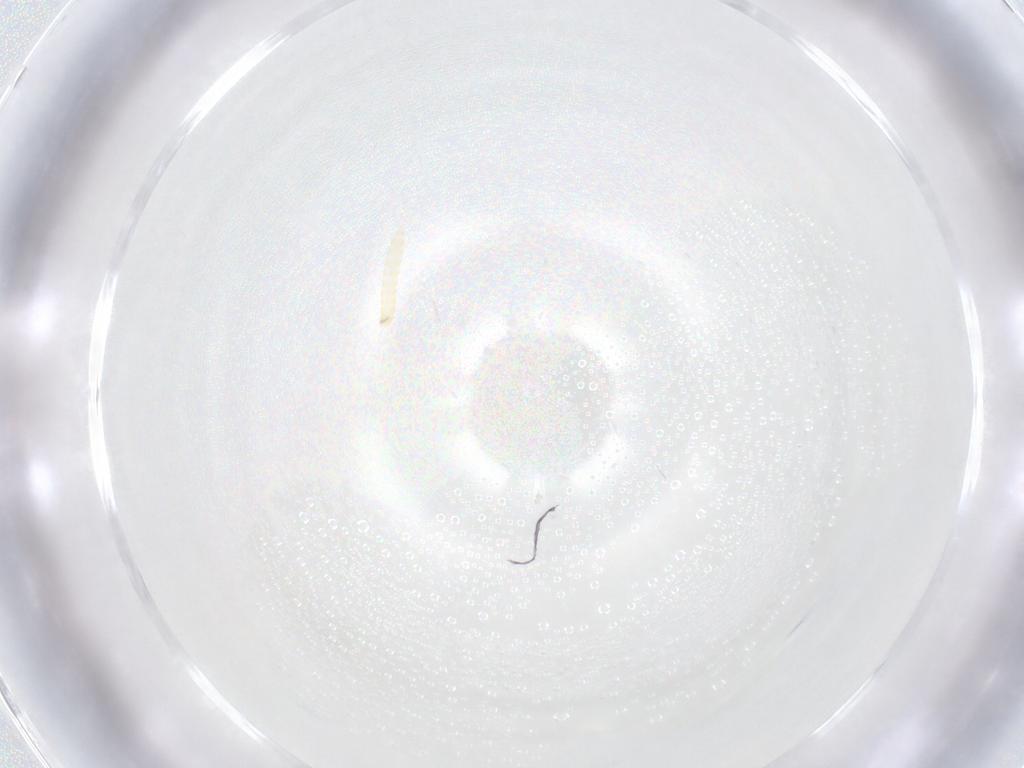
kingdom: Animalia
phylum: Arthropoda
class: Insecta
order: Diptera
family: Tachinidae
